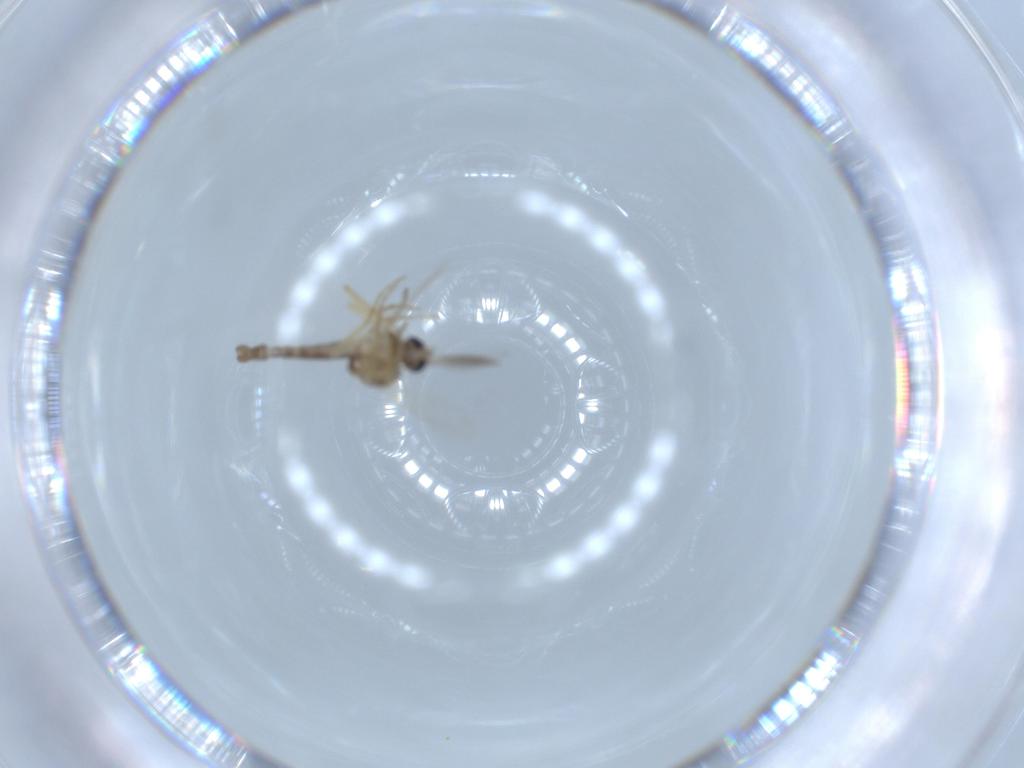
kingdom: Animalia
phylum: Arthropoda
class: Insecta
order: Diptera
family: Ceratopogonidae
